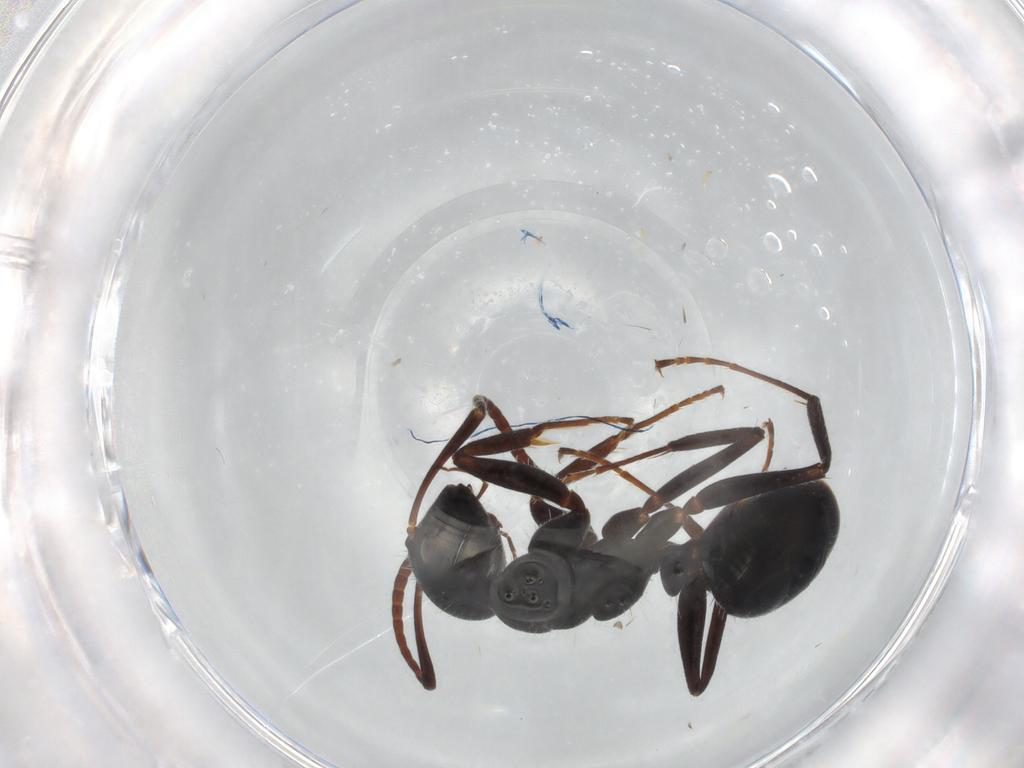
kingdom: Animalia
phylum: Arthropoda
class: Insecta
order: Hymenoptera
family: Formicidae
